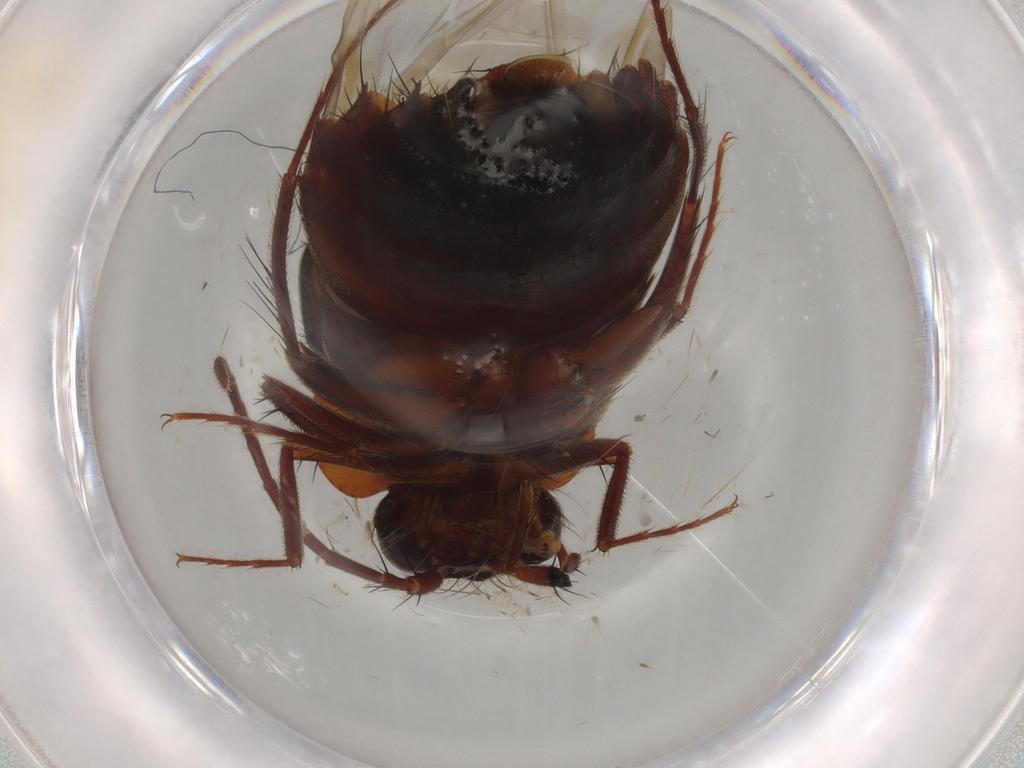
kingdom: Animalia
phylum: Arthropoda
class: Insecta
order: Coleoptera
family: Staphylinidae
